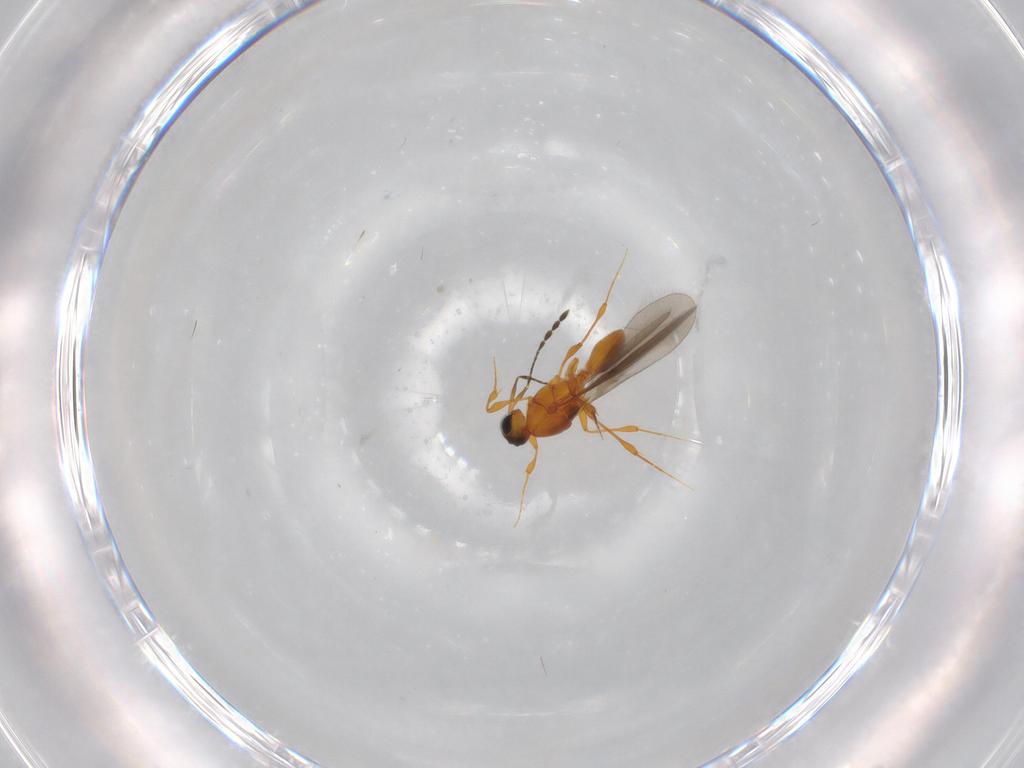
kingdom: Animalia
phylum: Arthropoda
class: Insecta
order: Hymenoptera
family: Platygastridae
